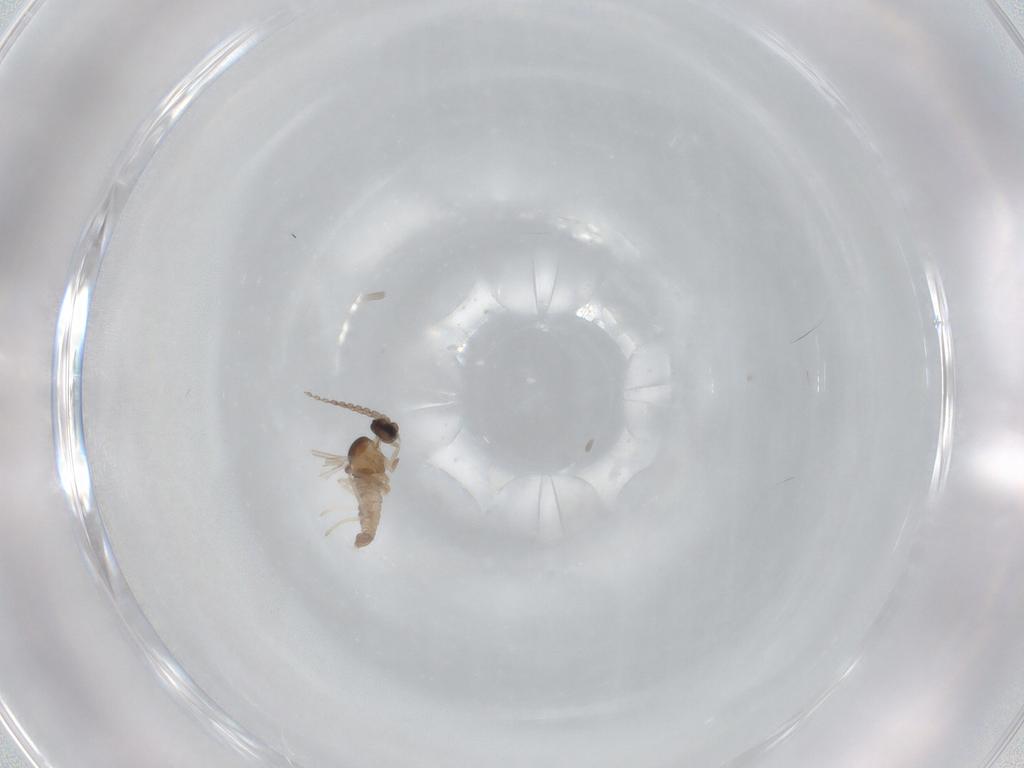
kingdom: Animalia
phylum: Arthropoda
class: Insecta
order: Diptera
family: Cecidomyiidae
